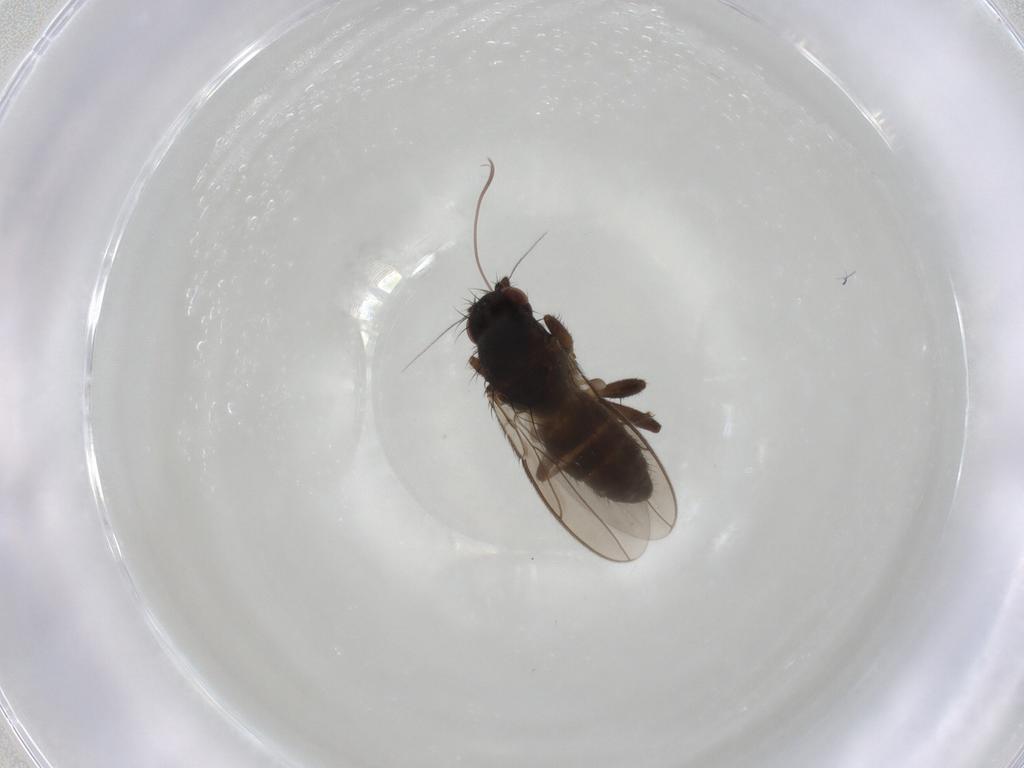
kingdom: Animalia
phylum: Arthropoda
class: Insecta
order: Diptera
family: Sphaeroceridae
